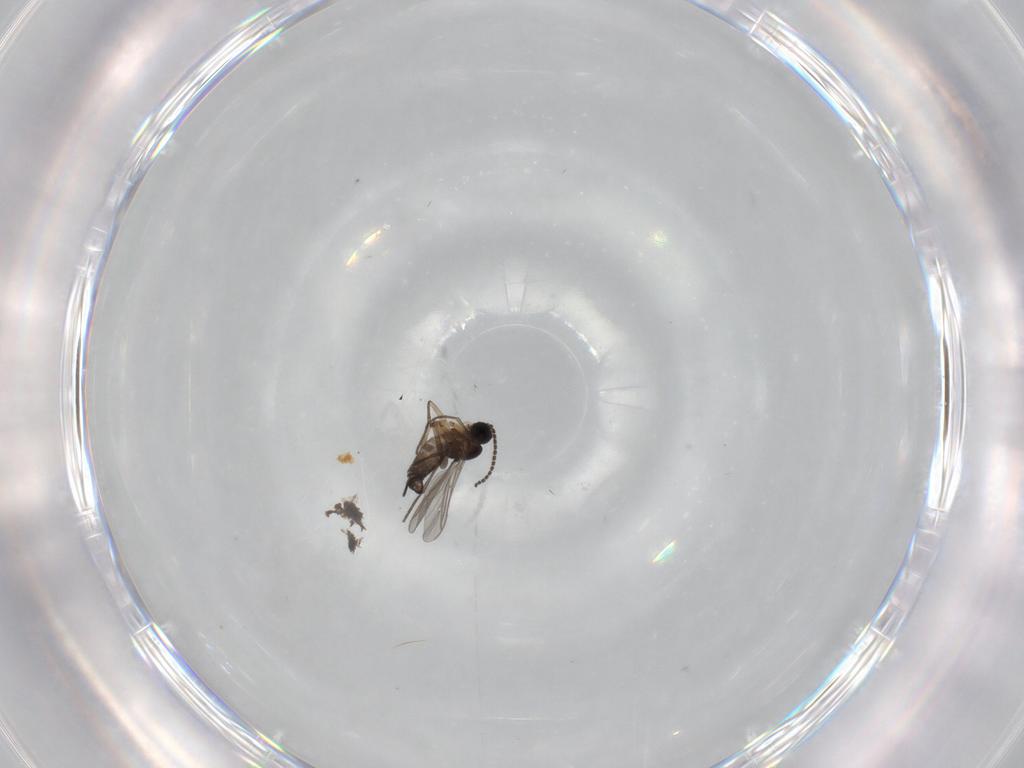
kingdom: Animalia
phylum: Arthropoda
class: Insecta
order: Diptera
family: Sciaridae
